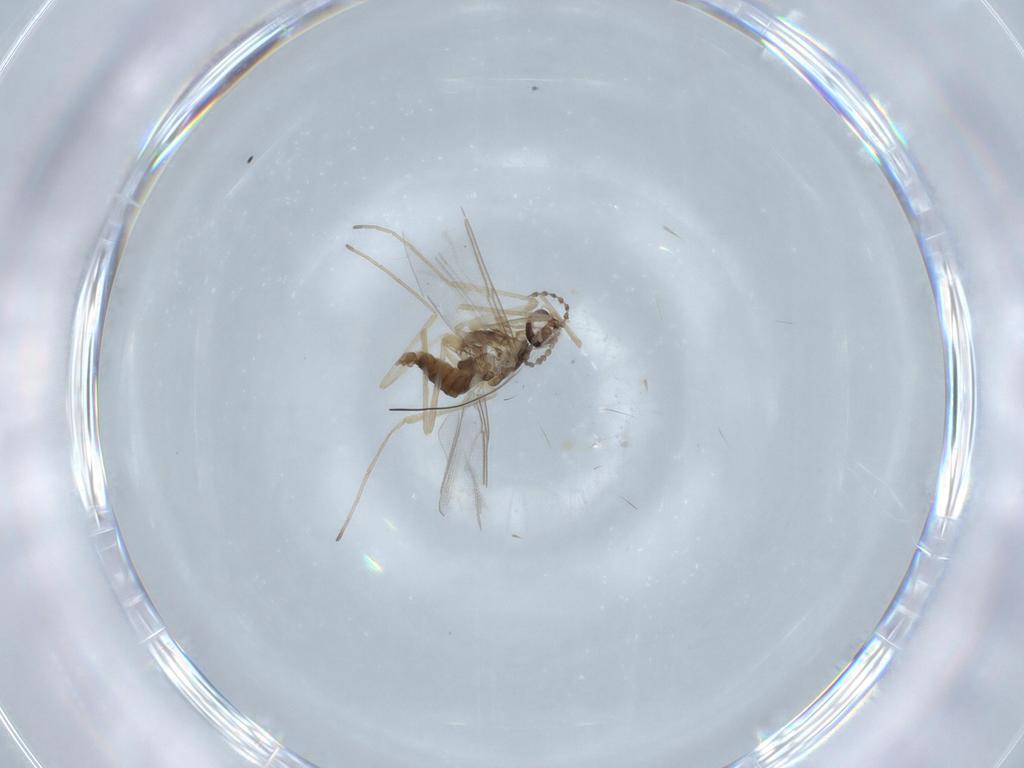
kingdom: Animalia
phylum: Arthropoda
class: Insecta
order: Diptera
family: Cecidomyiidae
